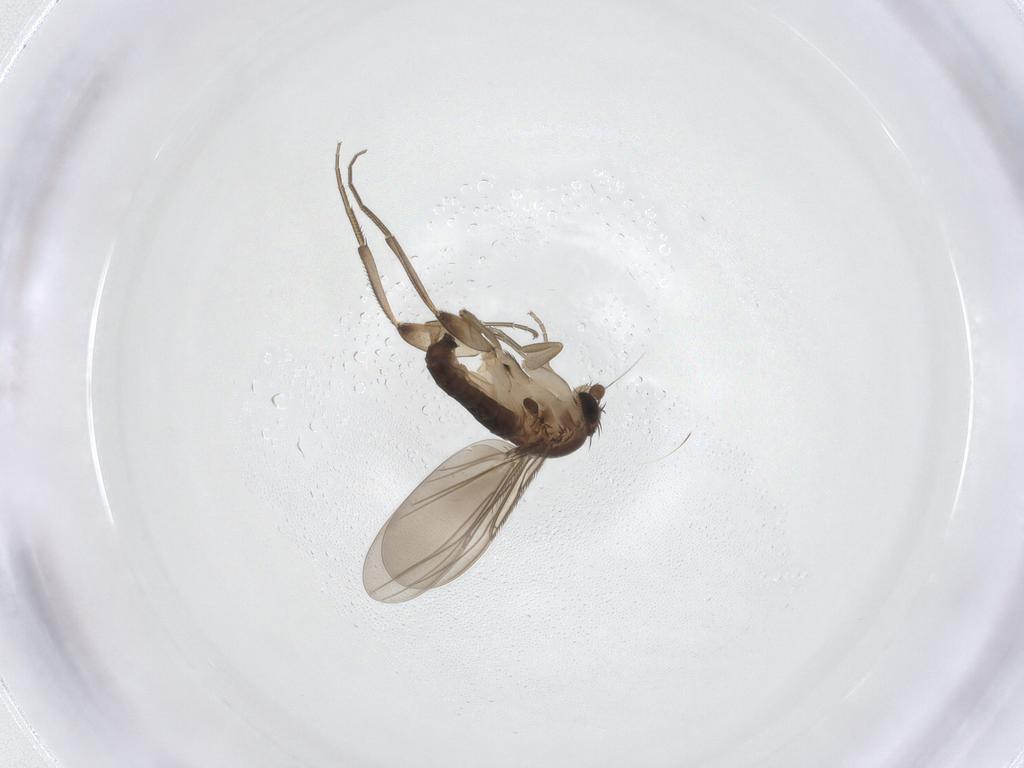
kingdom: Animalia
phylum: Arthropoda
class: Insecta
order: Diptera
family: Phoridae
